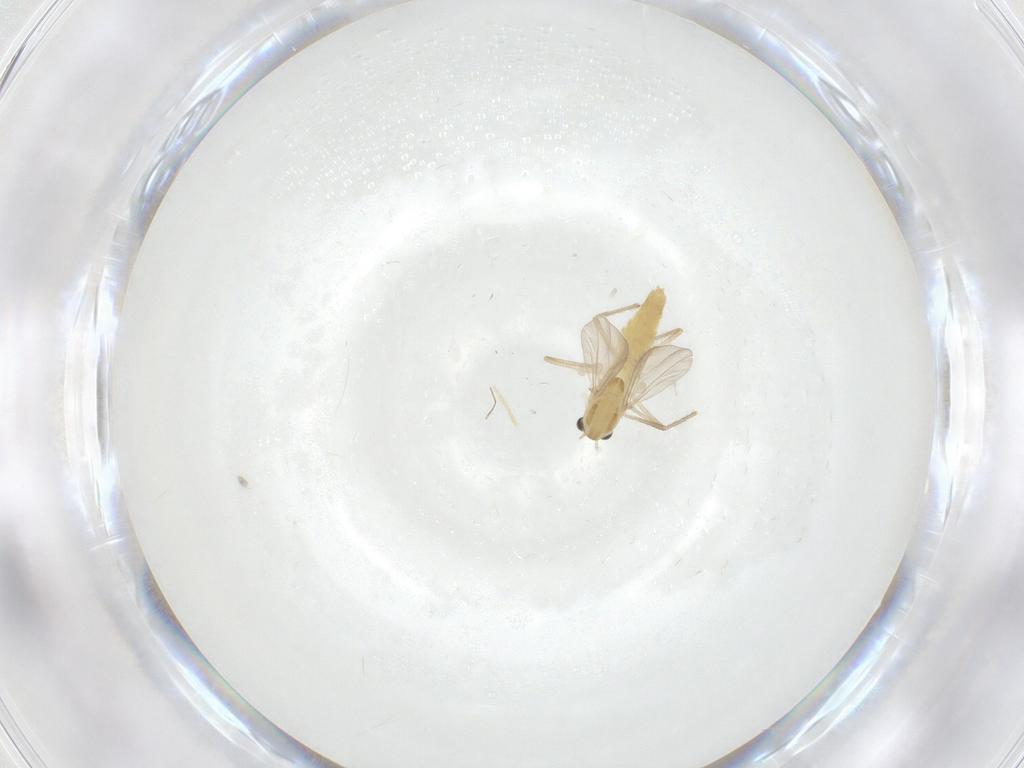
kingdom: Animalia
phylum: Arthropoda
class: Insecta
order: Diptera
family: Chironomidae
